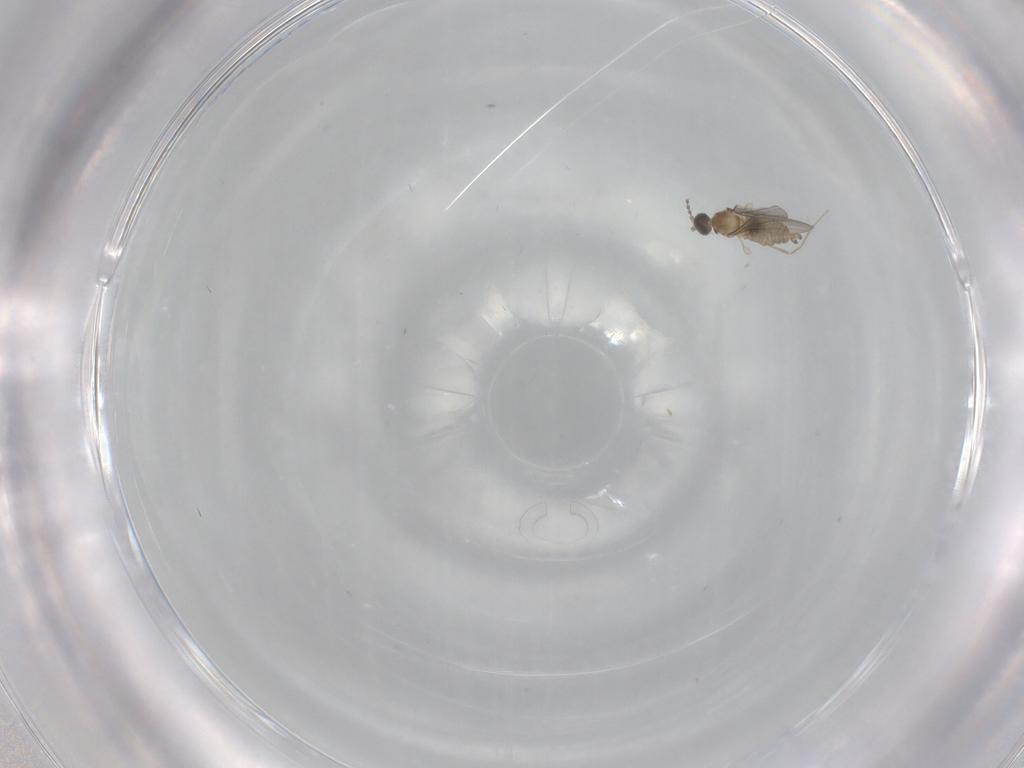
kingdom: Animalia
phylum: Arthropoda
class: Insecta
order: Diptera
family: Cecidomyiidae
